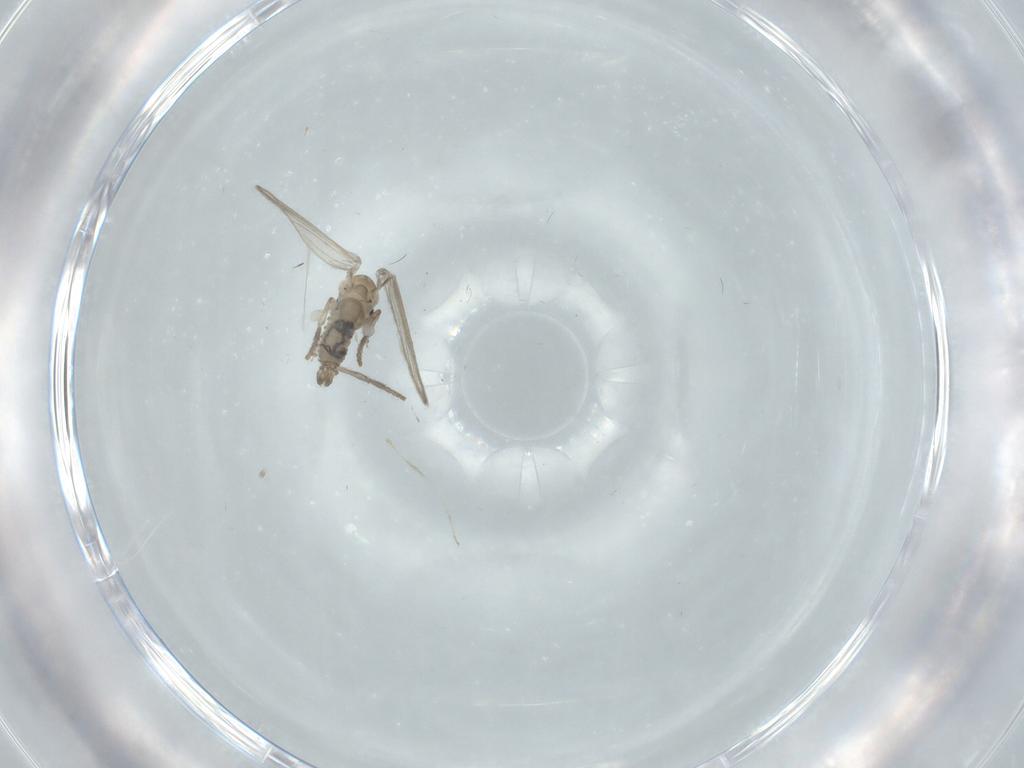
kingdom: Animalia
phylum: Arthropoda
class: Insecta
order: Diptera
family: Psychodidae
